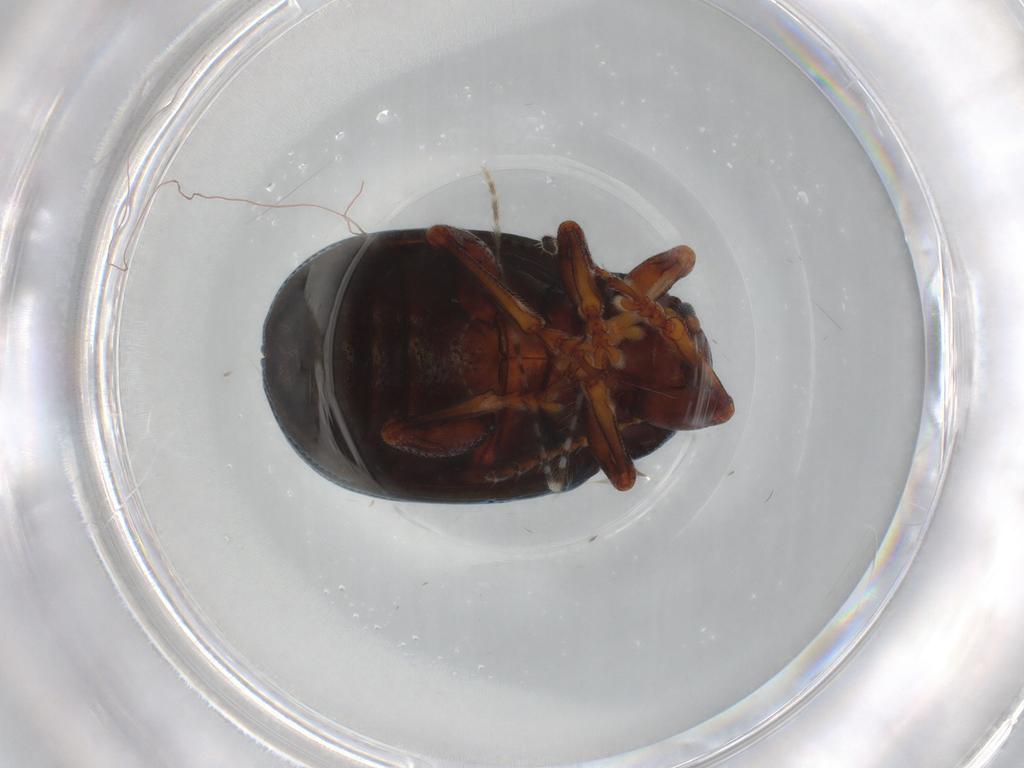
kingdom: Animalia
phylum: Arthropoda
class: Insecta
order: Coleoptera
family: Chrysomelidae
